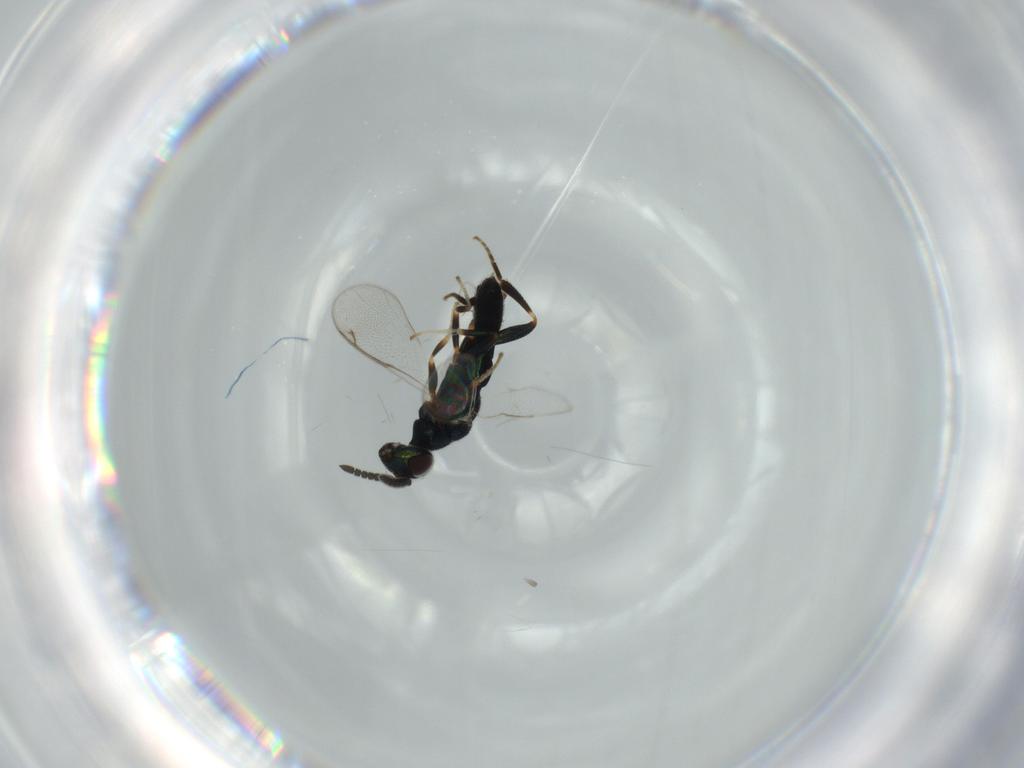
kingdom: Animalia
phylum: Arthropoda
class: Insecta
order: Hymenoptera
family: Cleonyminae
